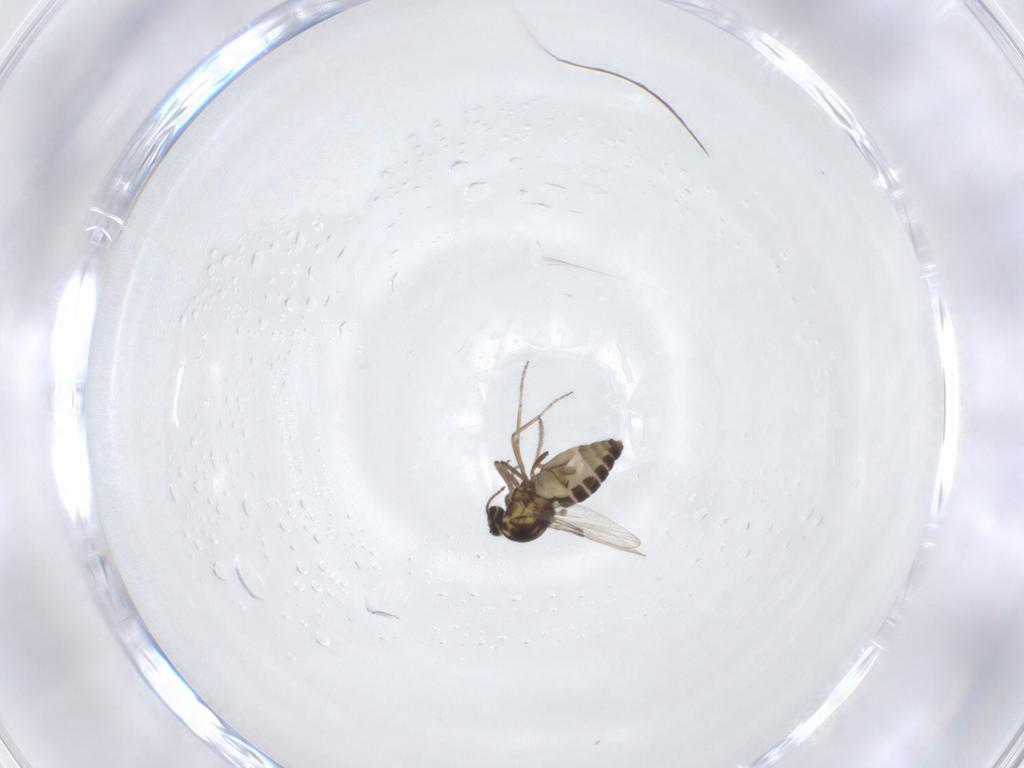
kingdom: Animalia
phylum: Arthropoda
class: Insecta
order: Diptera
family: Ceratopogonidae
